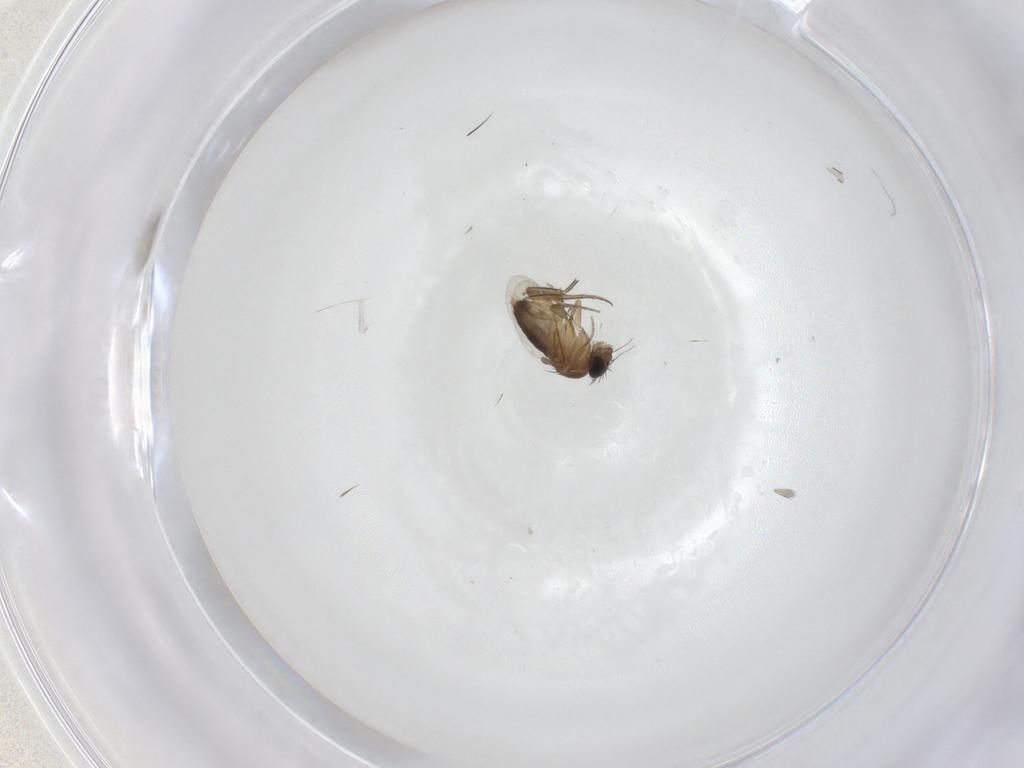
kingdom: Animalia
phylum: Arthropoda
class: Insecta
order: Diptera
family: Phoridae
